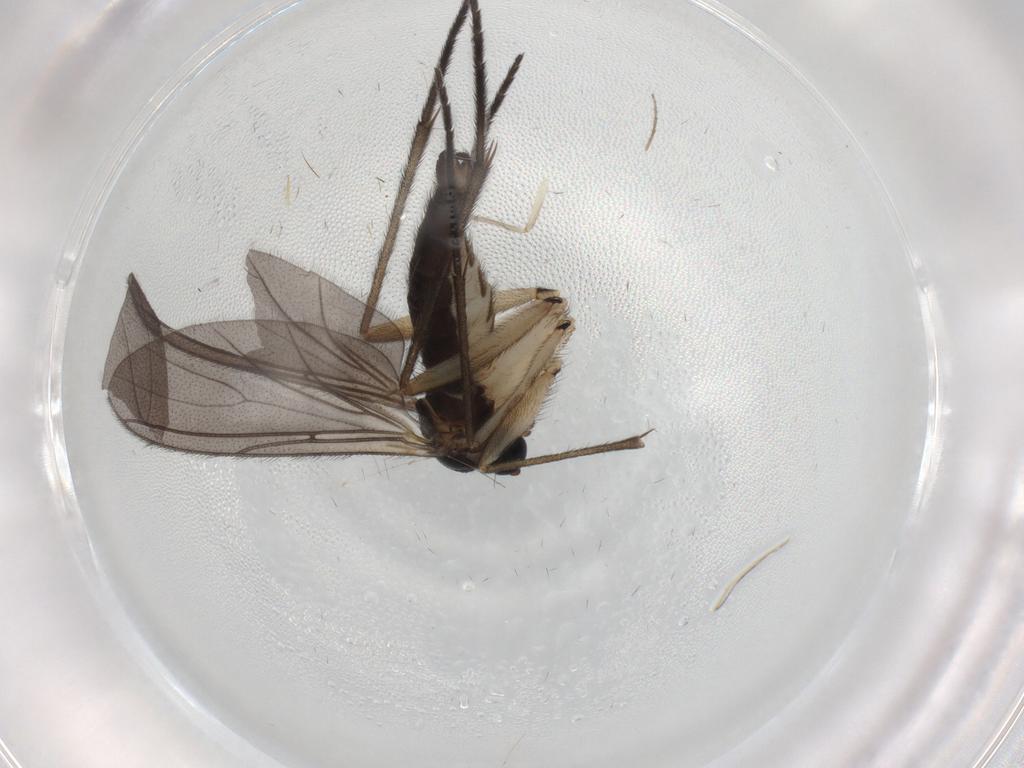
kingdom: Animalia
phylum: Arthropoda
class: Insecta
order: Diptera
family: Sciaridae
